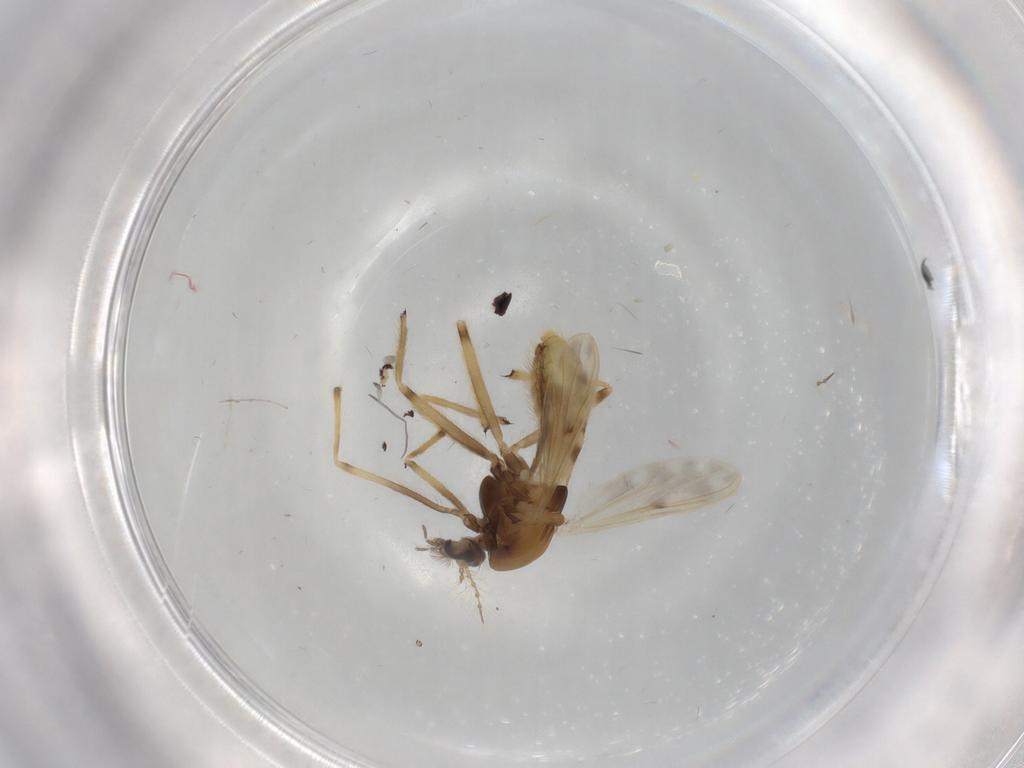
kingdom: Animalia
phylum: Arthropoda
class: Insecta
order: Diptera
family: Chironomidae
